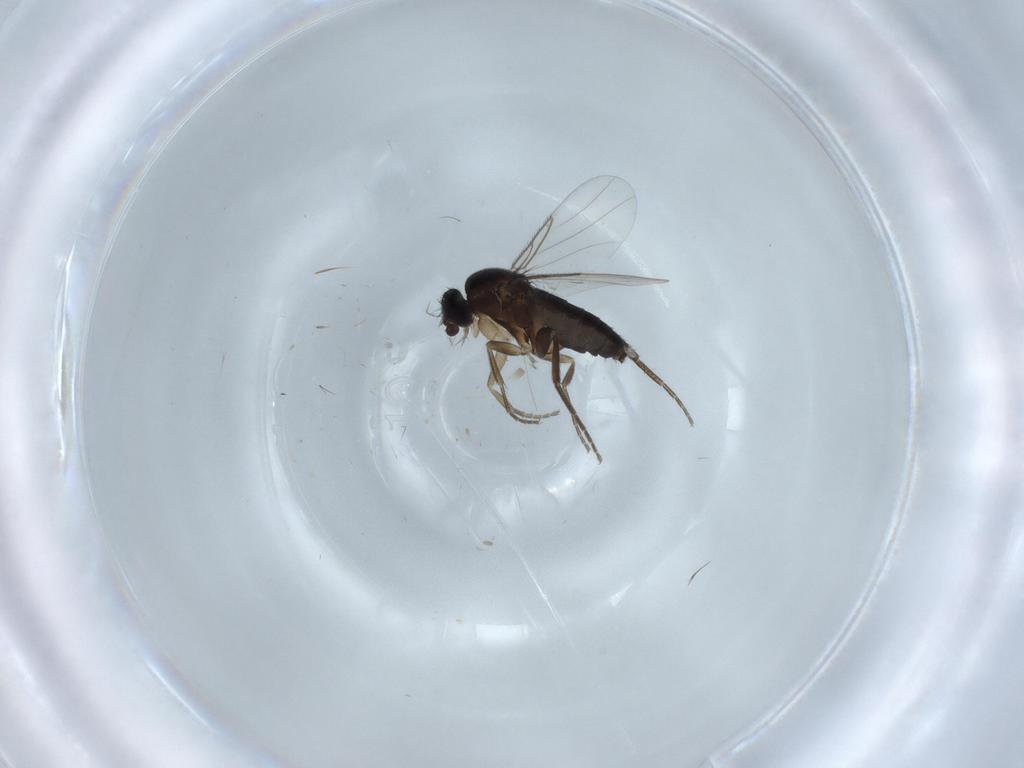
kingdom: Animalia
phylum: Arthropoda
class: Insecta
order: Diptera
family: Phoridae
